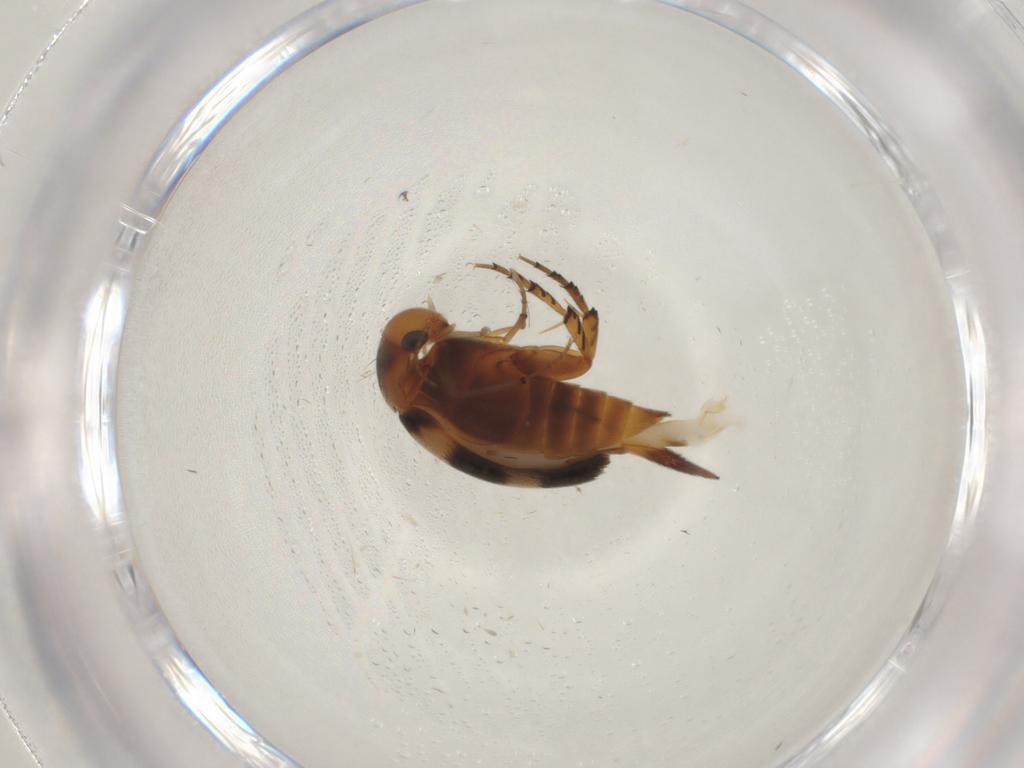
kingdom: Animalia
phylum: Arthropoda
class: Insecta
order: Coleoptera
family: Mordellidae
